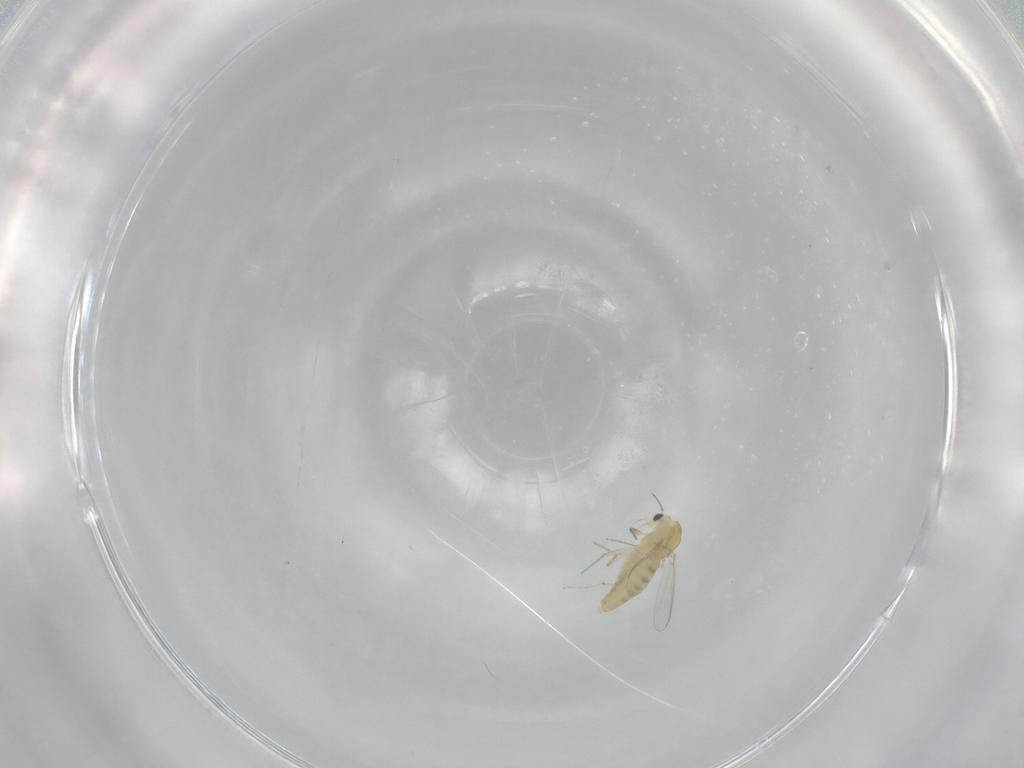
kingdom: Animalia
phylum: Arthropoda
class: Insecta
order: Diptera
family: Chironomidae
